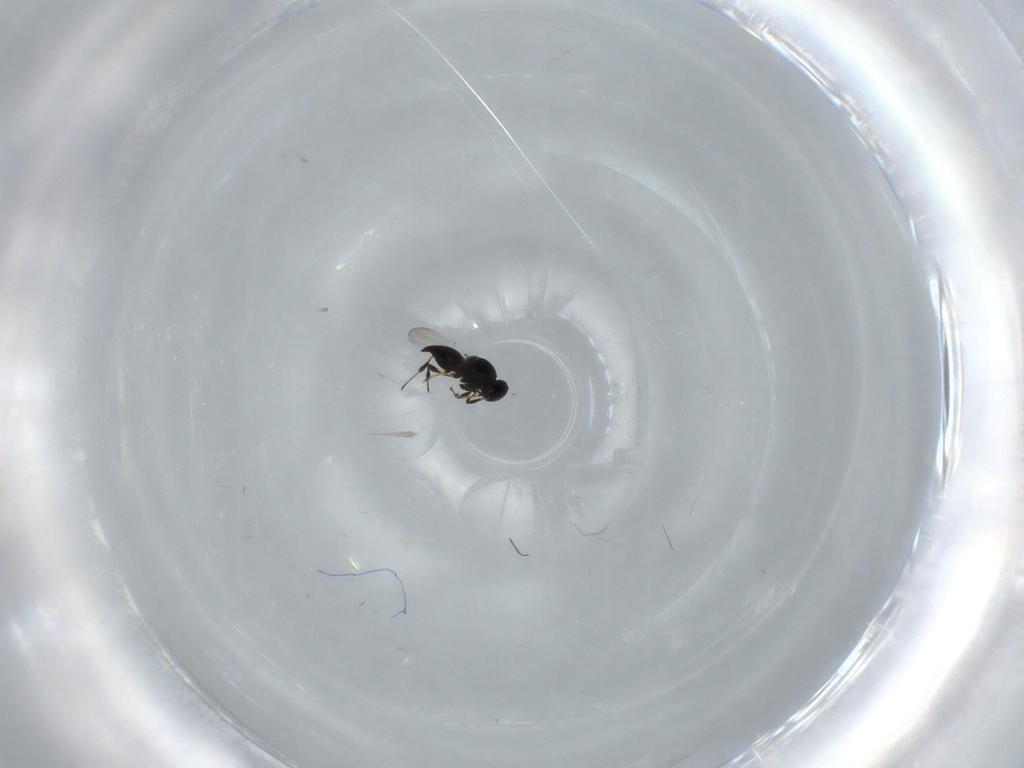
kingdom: Animalia
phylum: Arthropoda
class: Insecta
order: Hymenoptera
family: Platygastridae
